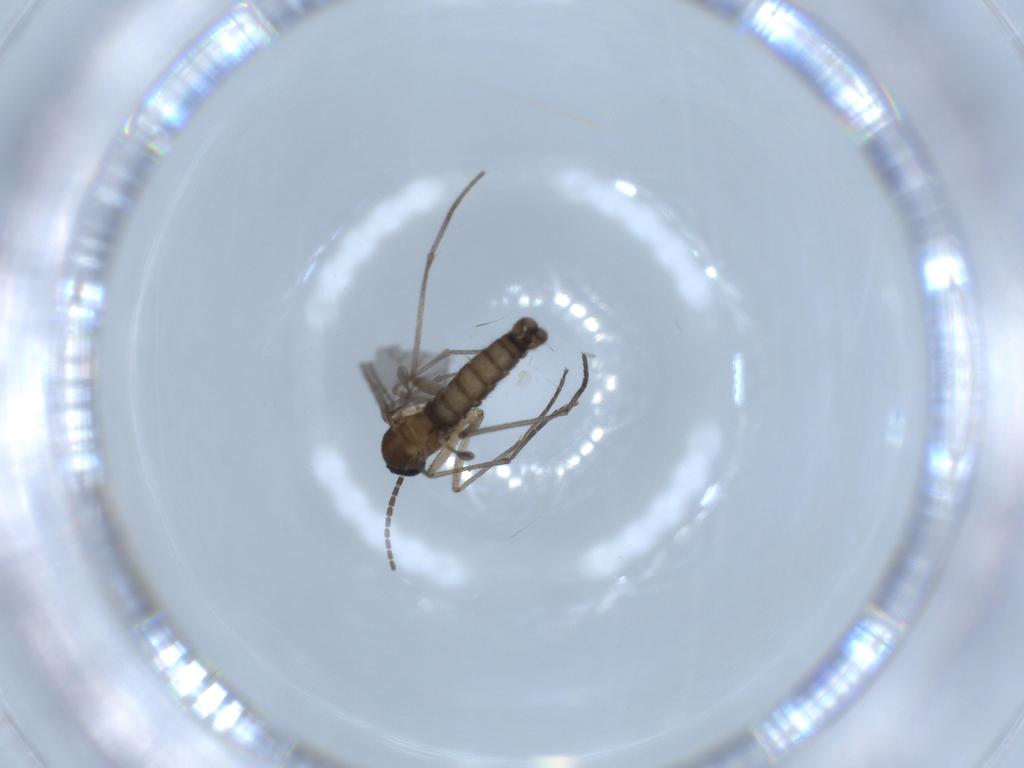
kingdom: Animalia
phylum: Arthropoda
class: Insecta
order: Diptera
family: Sciaridae
